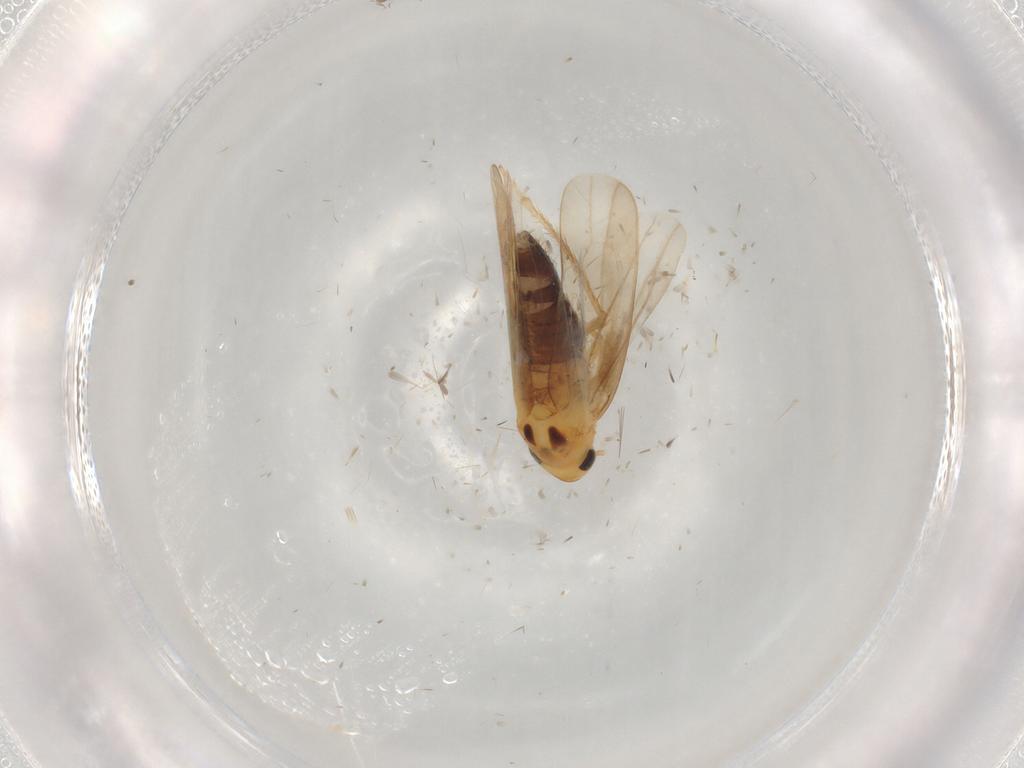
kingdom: Animalia
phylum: Arthropoda
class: Insecta
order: Hemiptera
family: Cicadellidae
